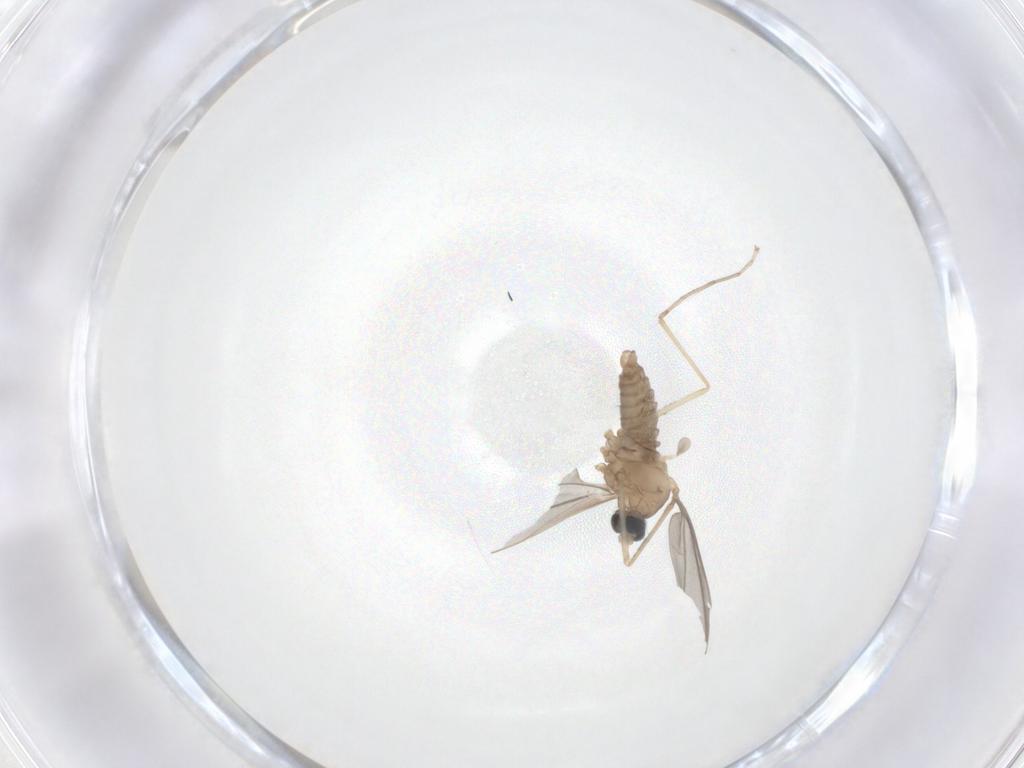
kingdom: Animalia
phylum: Arthropoda
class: Insecta
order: Diptera
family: Cecidomyiidae
